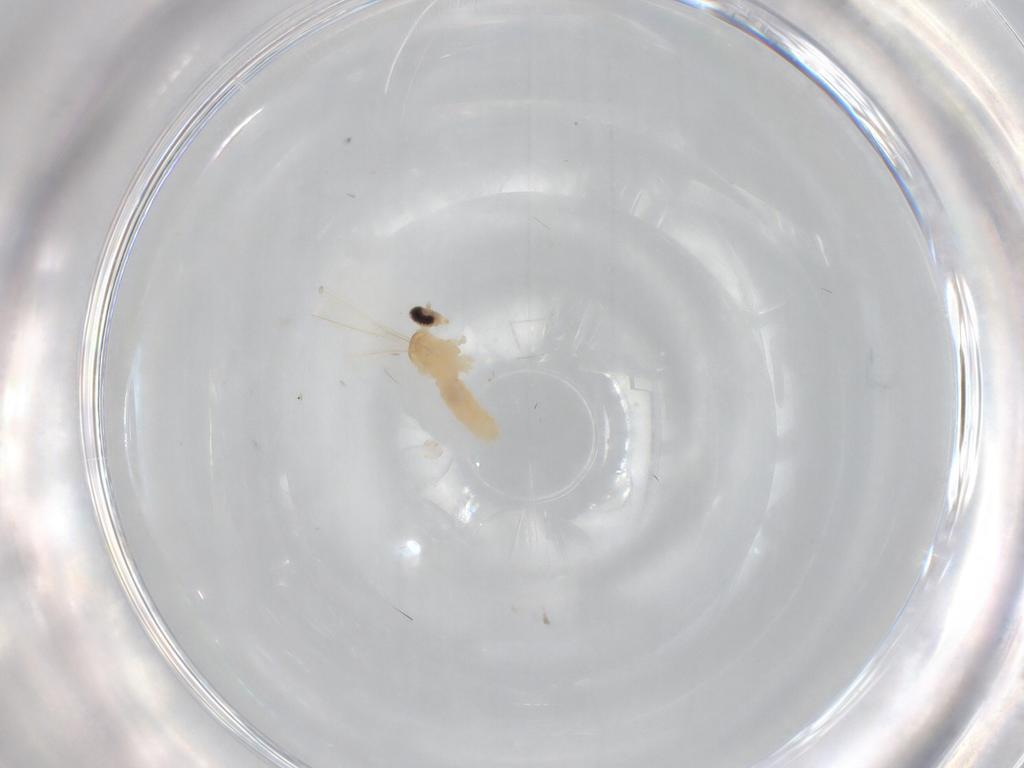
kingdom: Animalia
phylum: Arthropoda
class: Insecta
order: Diptera
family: Cecidomyiidae
